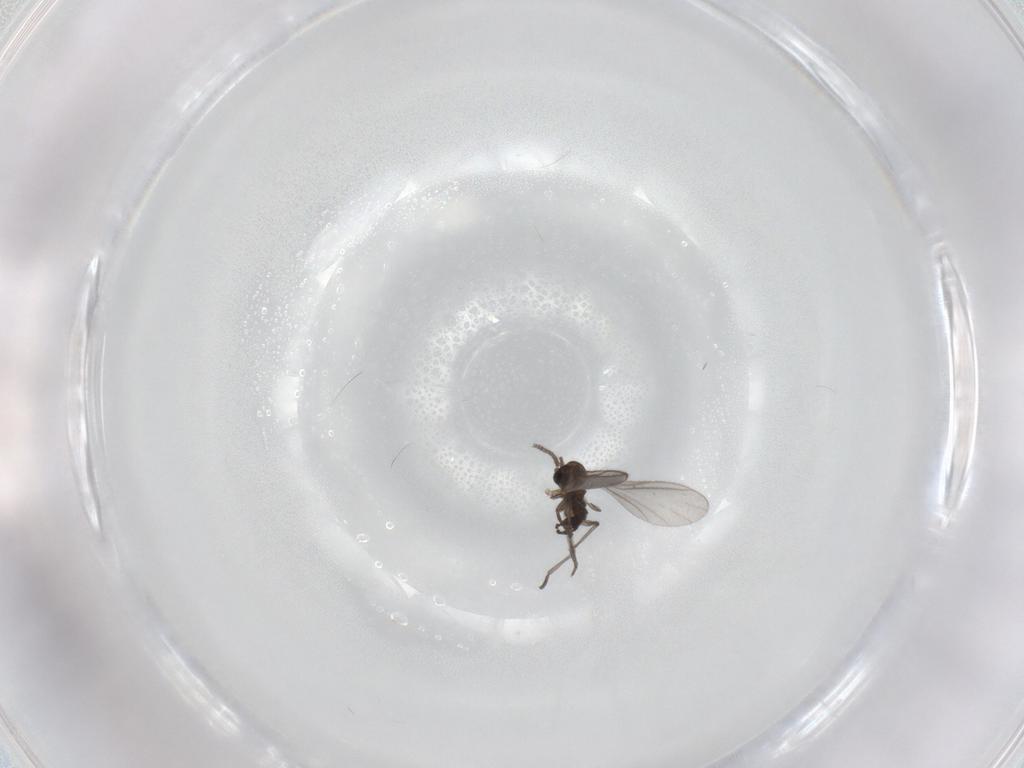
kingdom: Animalia
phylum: Arthropoda
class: Insecta
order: Diptera
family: Sciaridae
